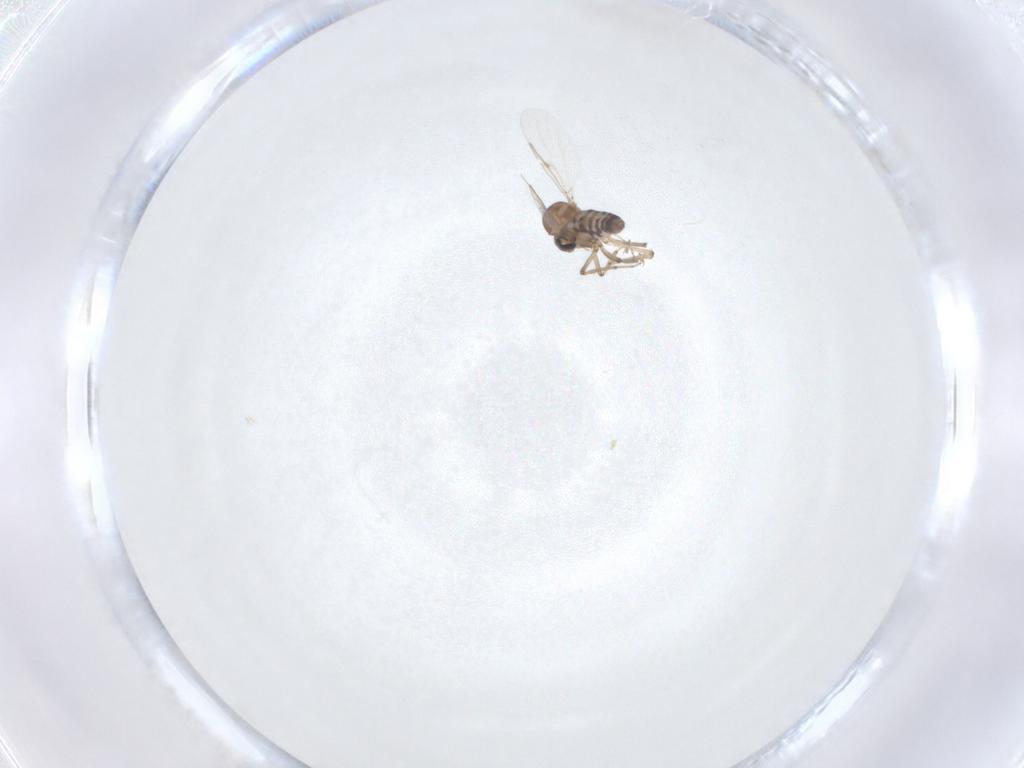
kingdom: Animalia
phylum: Arthropoda
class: Insecta
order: Diptera
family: Ceratopogonidae
